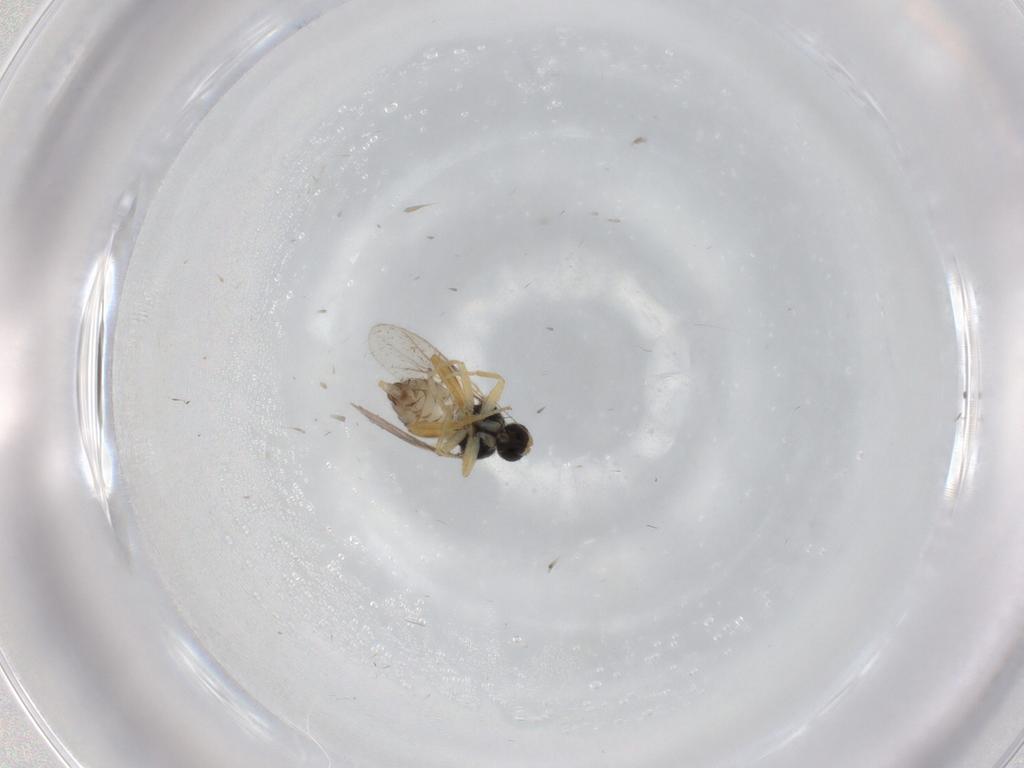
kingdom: Animalia
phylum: Arthropoda
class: Insecta
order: Diptera
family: Hybotidae
